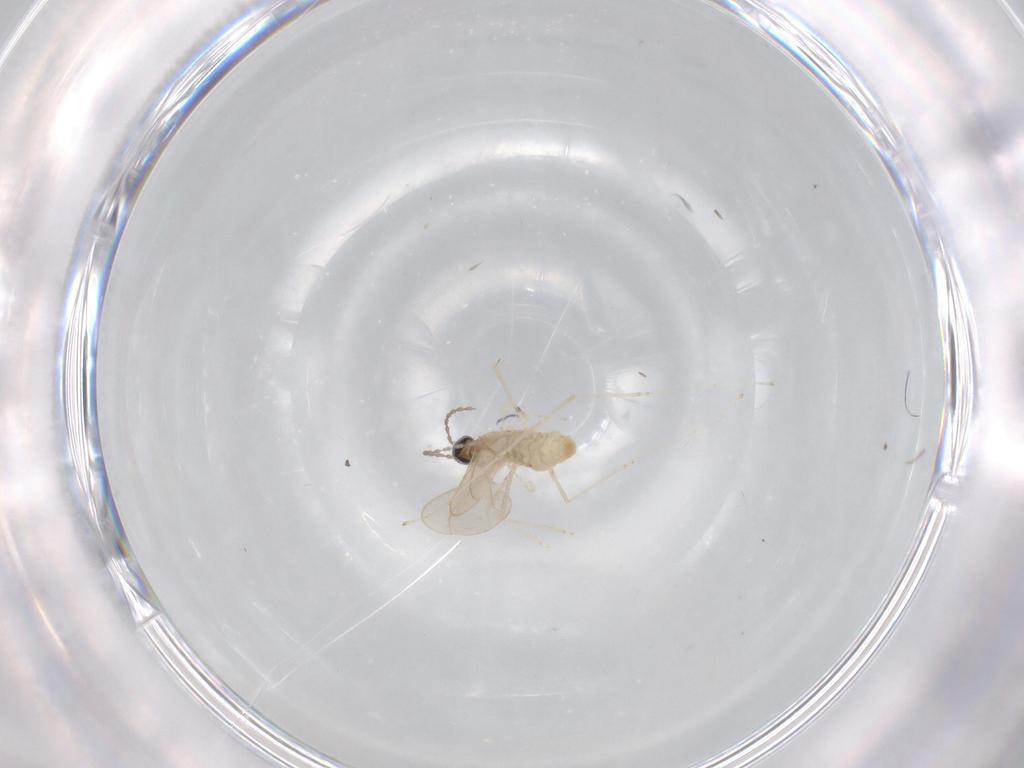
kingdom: Animalia
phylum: Arthropoda
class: Insecta
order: Diptera
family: Cecidomyiidae
